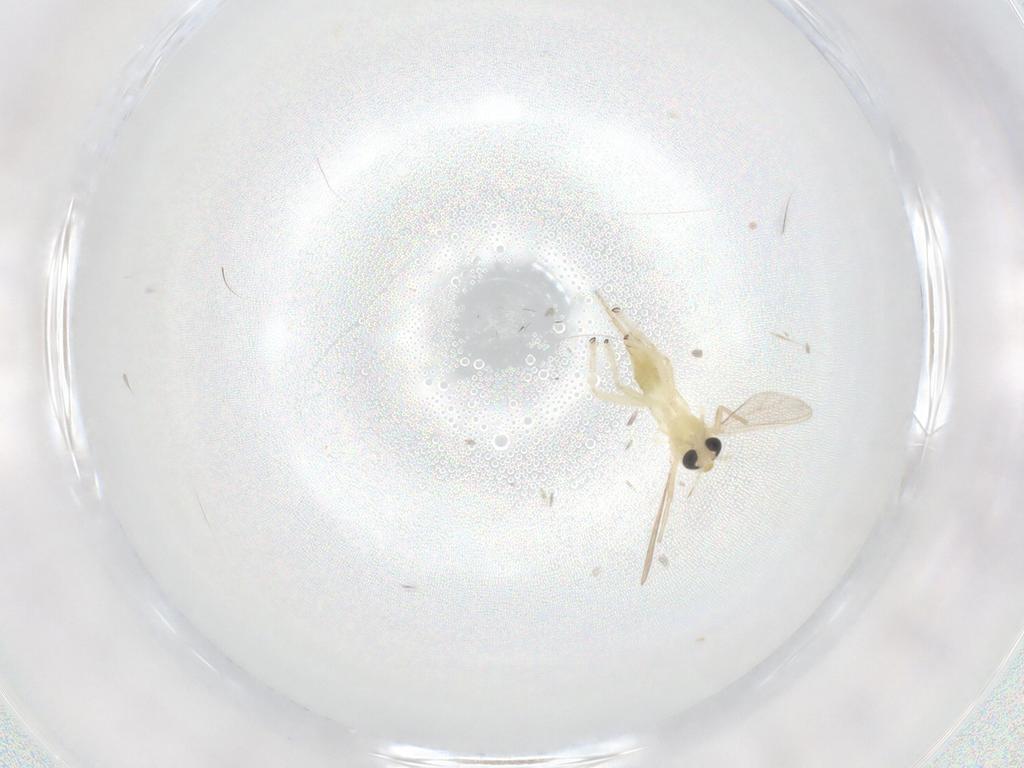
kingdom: Animalia
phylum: Arthropoda
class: Insecta
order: Diptera
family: Chironomidae
